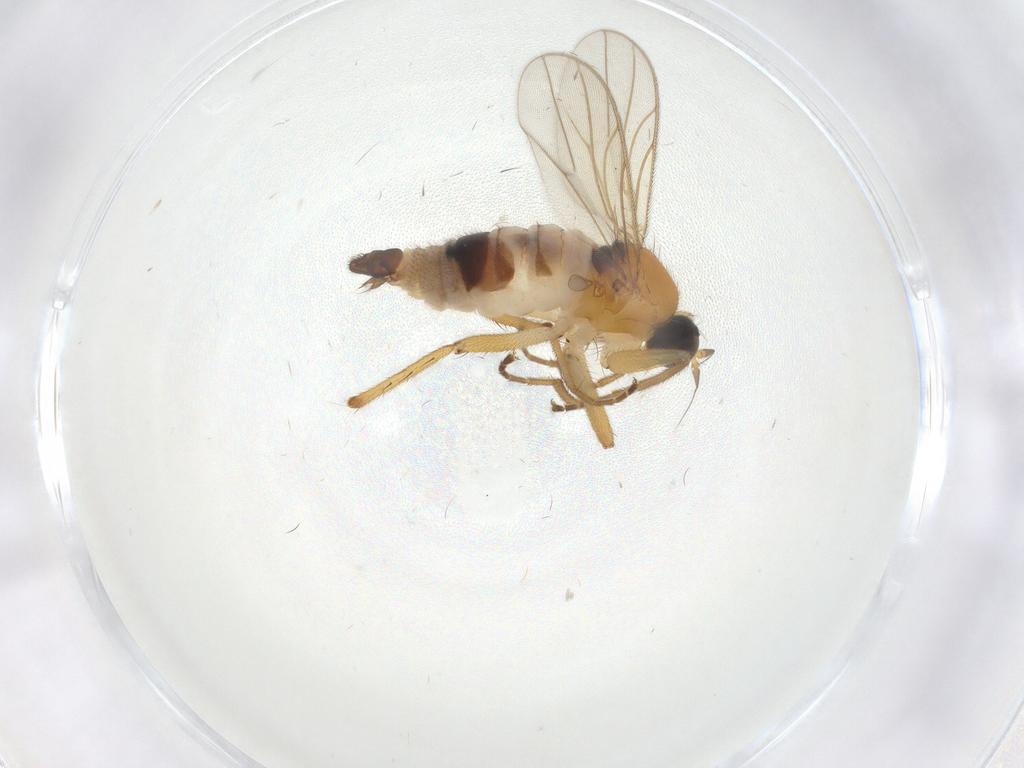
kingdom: Animalia
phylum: Arthropoda
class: Insecta
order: Diptera
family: Hybotidae
